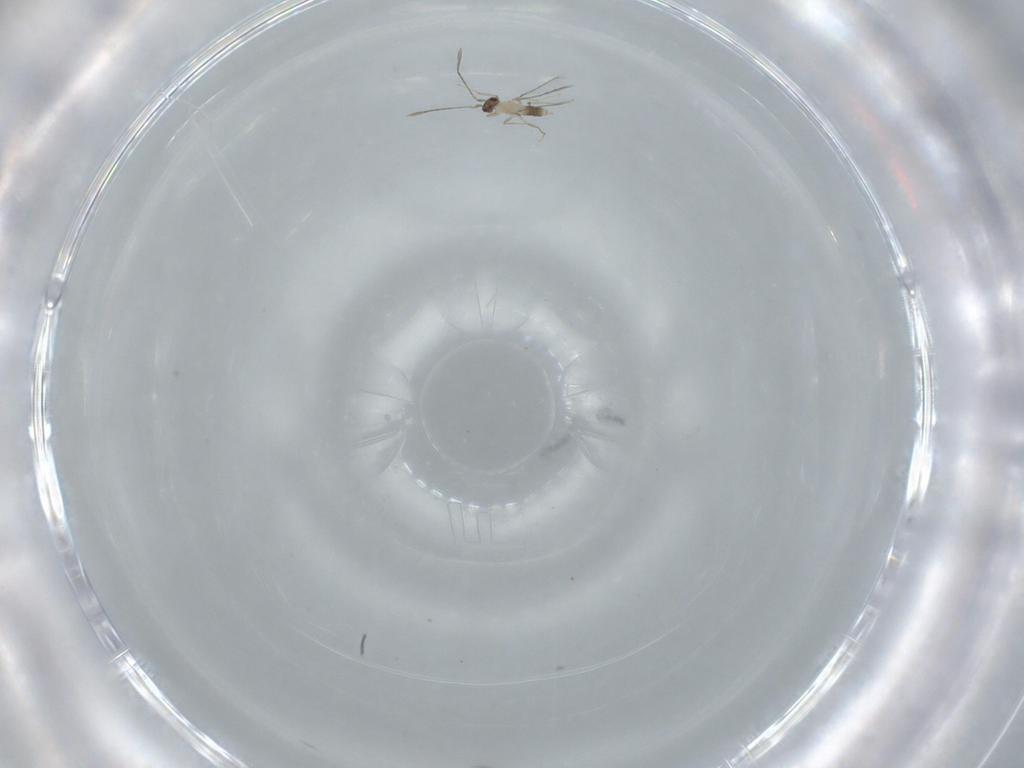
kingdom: Animalia
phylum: Arthropoda
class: Insecta
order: Hymenoptera
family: Mymaridae
